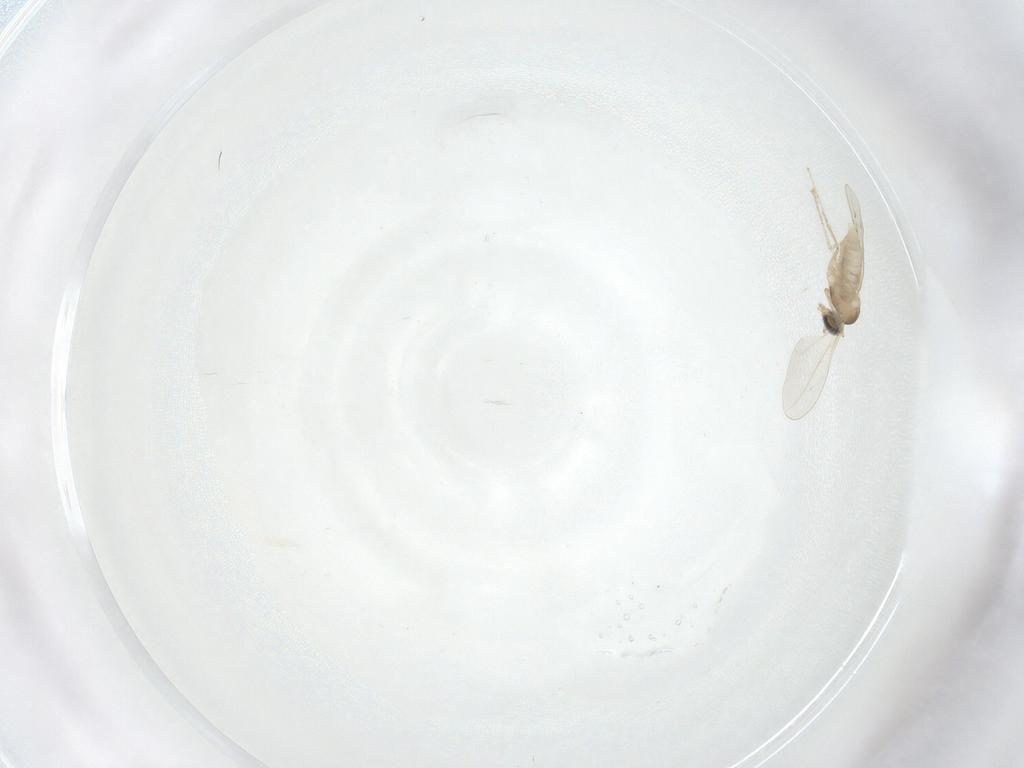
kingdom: Animalia
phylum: Arthropoda
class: Insecta
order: Diptera
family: Cecidomyiidae
